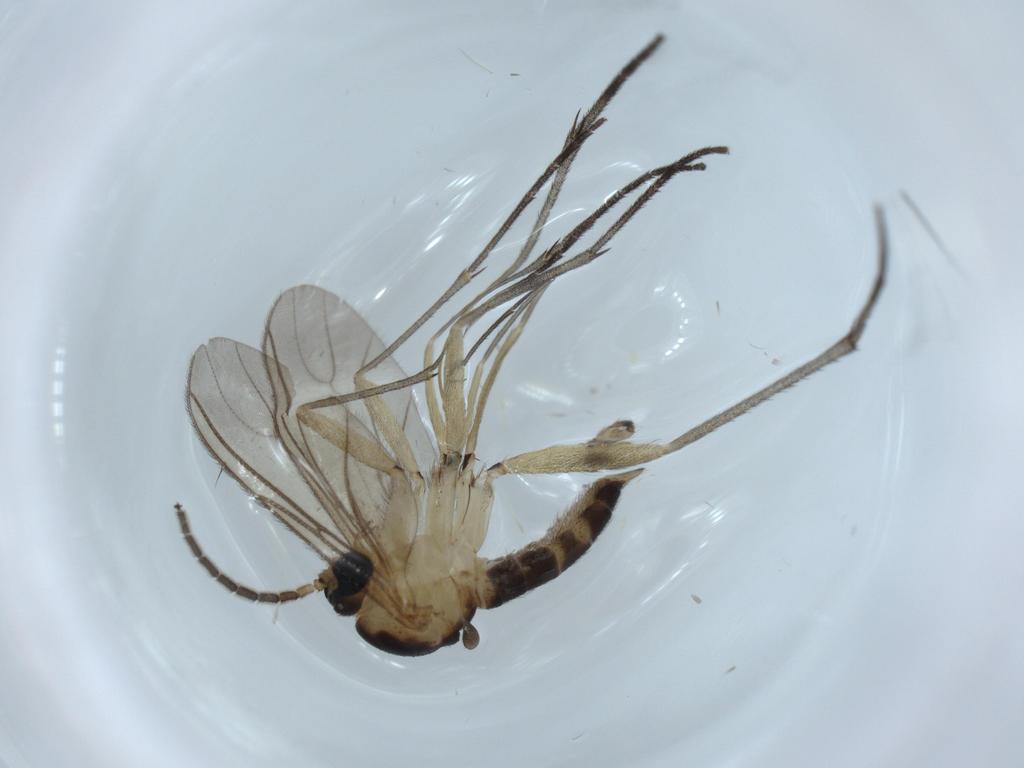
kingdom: Animalia
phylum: Arthropoda
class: Insecta
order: Diptera
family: Sciaridae
